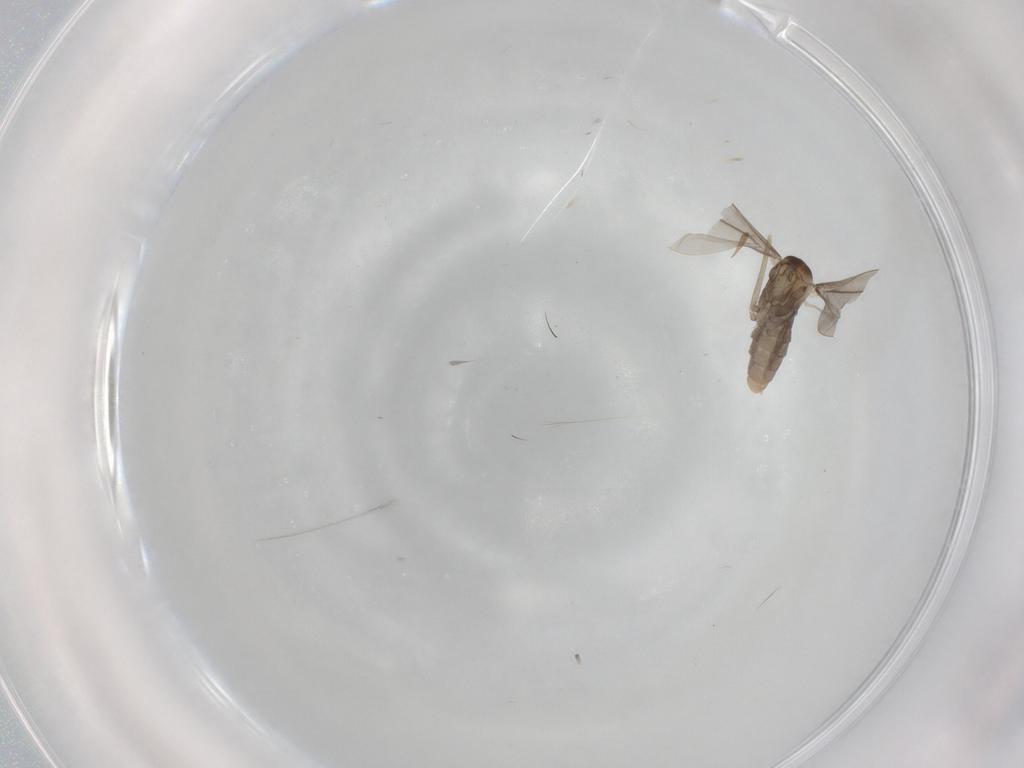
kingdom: Animalia
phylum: Arthropoda
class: Insecta
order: Diptera
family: Cecidomyiidae
